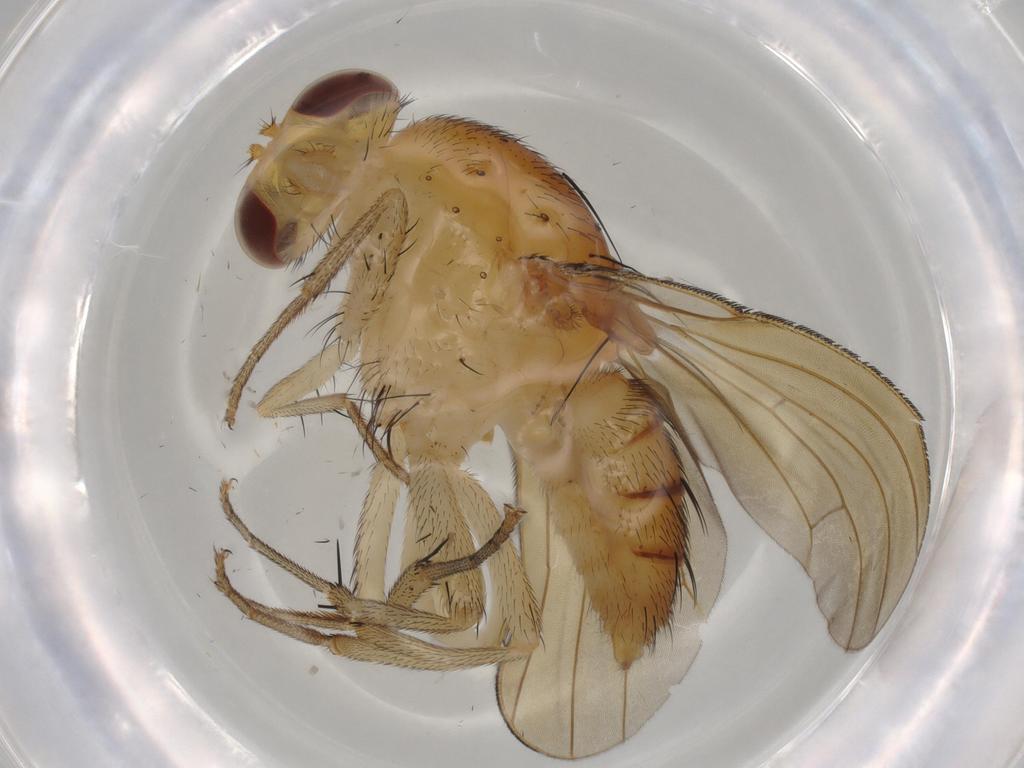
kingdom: Animalia
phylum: Arthropoda
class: Insecta
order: Diptera
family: Cecidomyiidae
